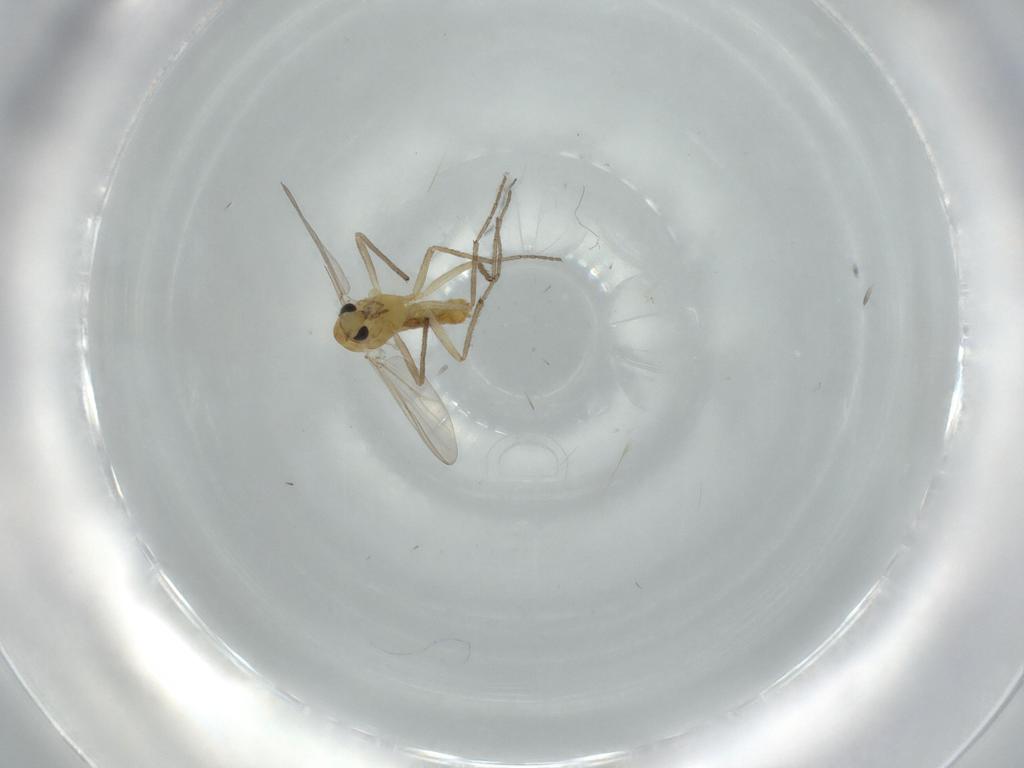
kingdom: Animalia
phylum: Arthropoda
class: Insecta
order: Diptera
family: Chironomidae
